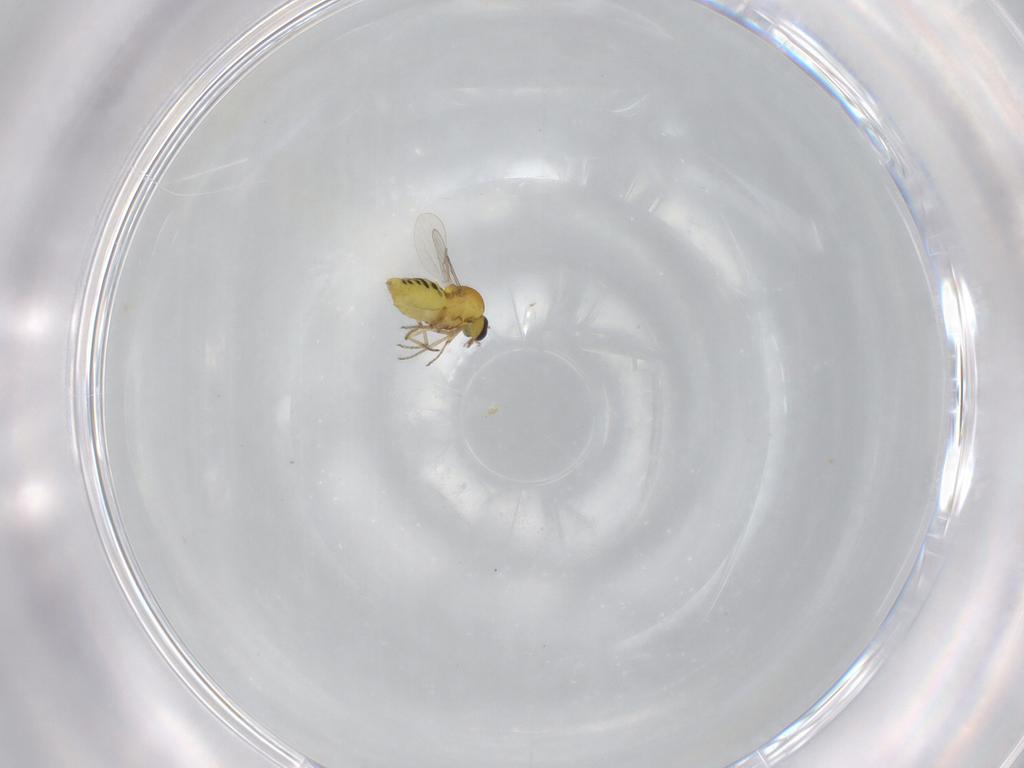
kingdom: Animalia
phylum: Arthropoda
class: Insecta
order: Diptera
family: Ceratopogonidae
